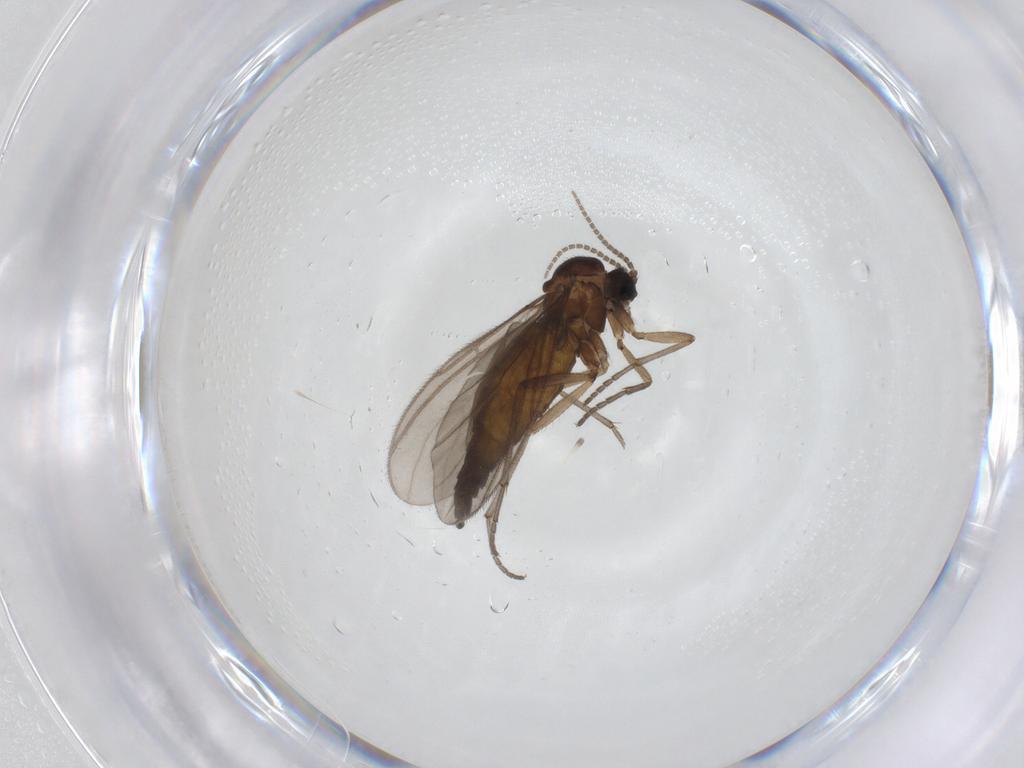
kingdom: Animalia
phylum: Arthropoda
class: Insecta
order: Diptera
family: Sciaridae
